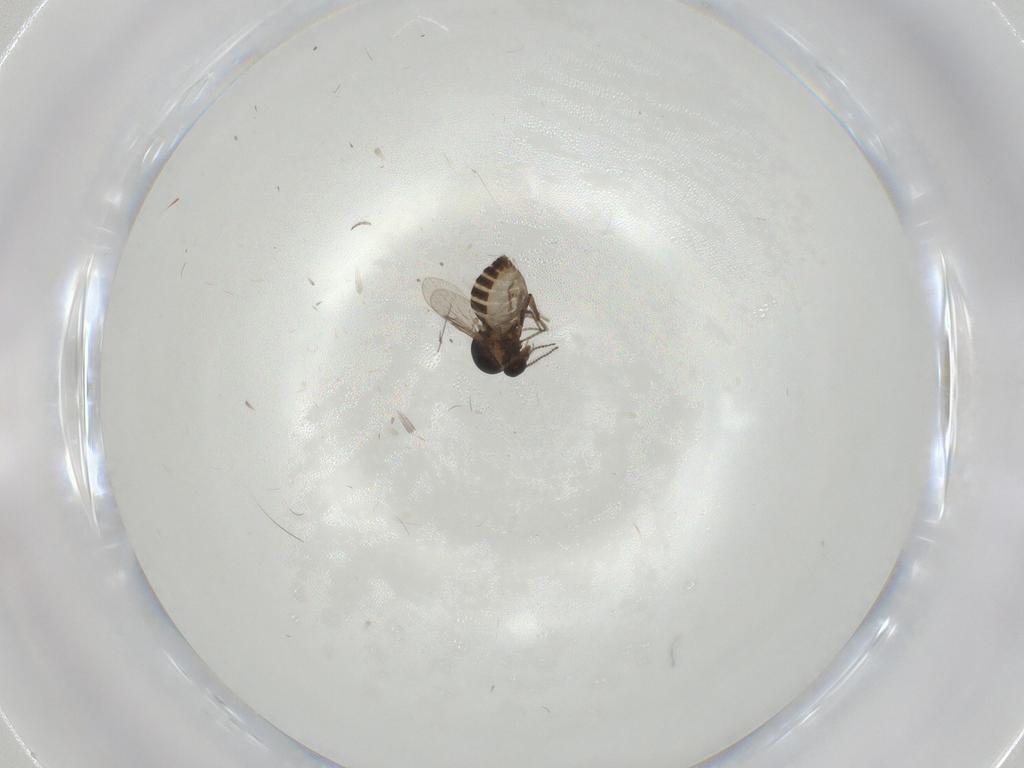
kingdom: Animalia
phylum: Arthropoda
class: Insecta
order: Diptera
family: Ceratopogonidae
